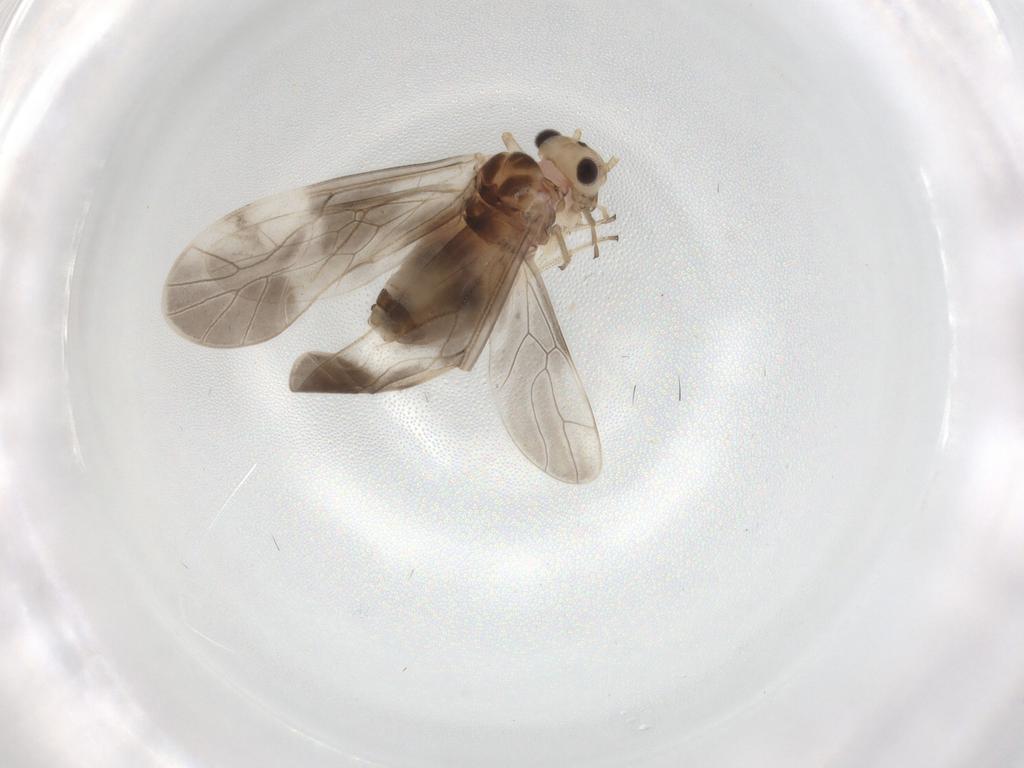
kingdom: Animalia
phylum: Arthropoda
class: Insecta
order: Psocodea
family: Caeciliusidae
